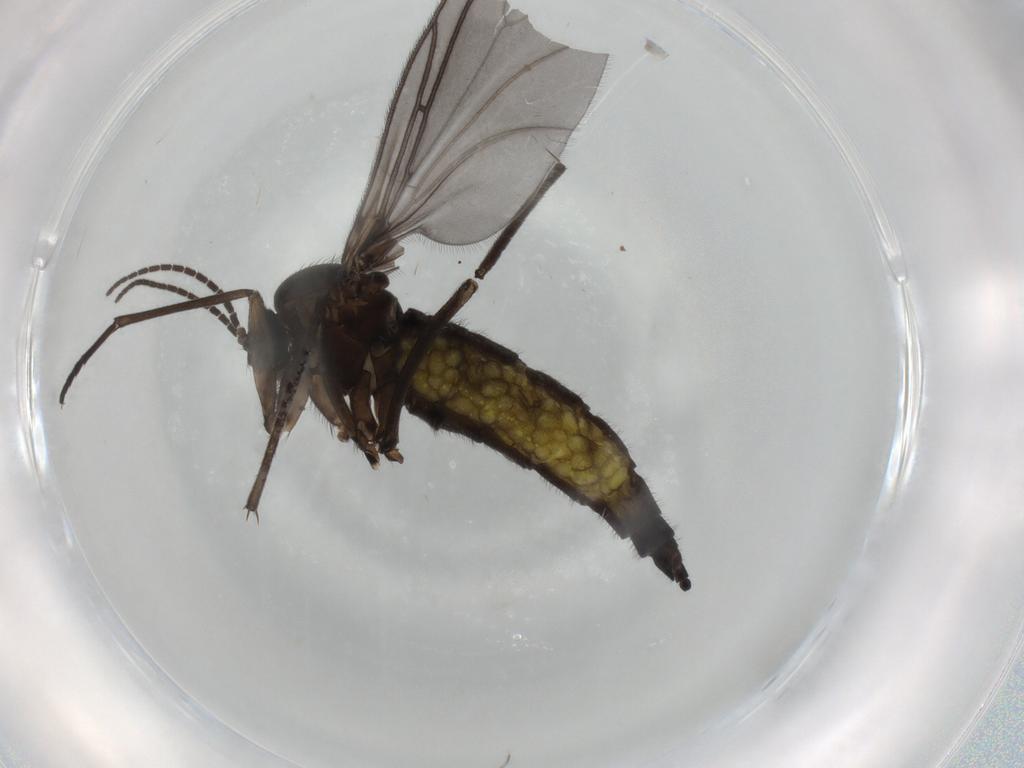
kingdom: Animalia
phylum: Arthropoda
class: Insecta
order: Diptera
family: Sciaridae
